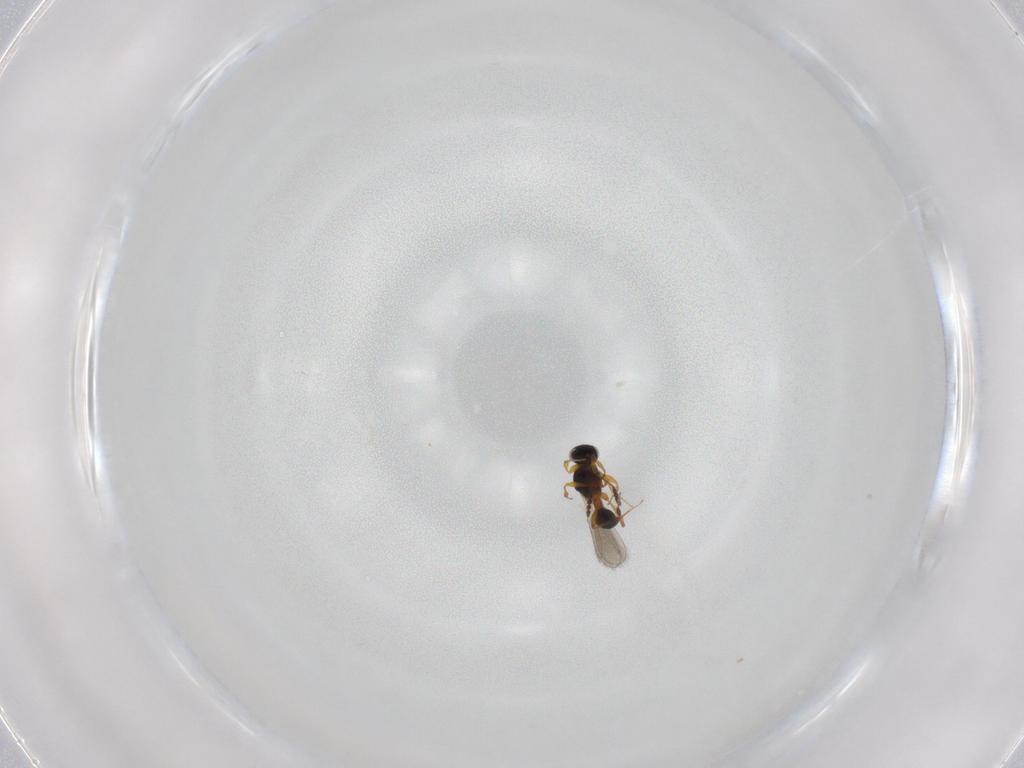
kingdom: Animalia
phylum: Arthropoda
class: Insecta
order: Hymenoptera
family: Platygastridae
